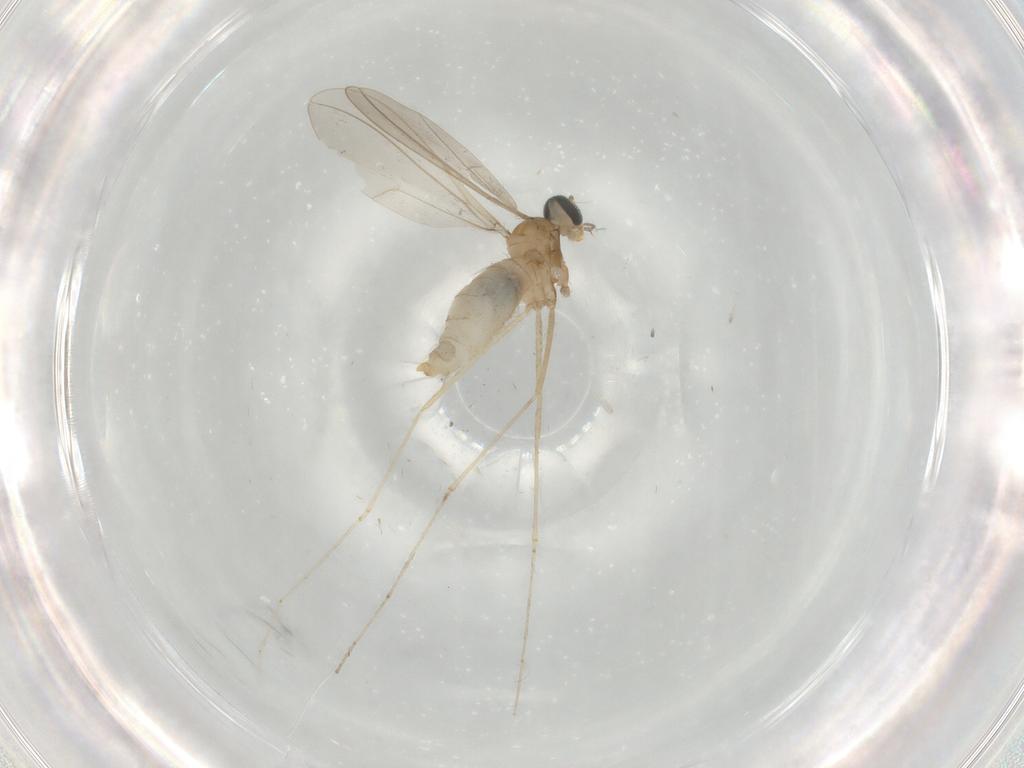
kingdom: Animalia
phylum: Arthropoda
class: Insecta
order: Diptera
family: Cecidomyiidae
